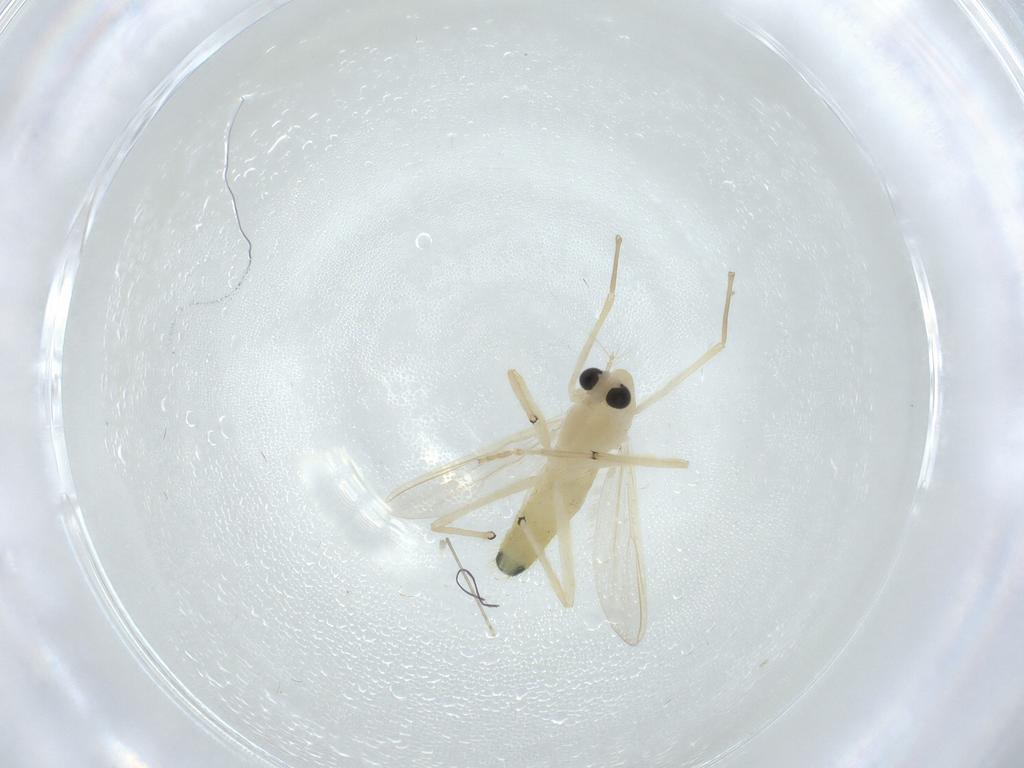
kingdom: Animalia
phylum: Arthropoda
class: Insecta
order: Diptera
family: Chironomidae
